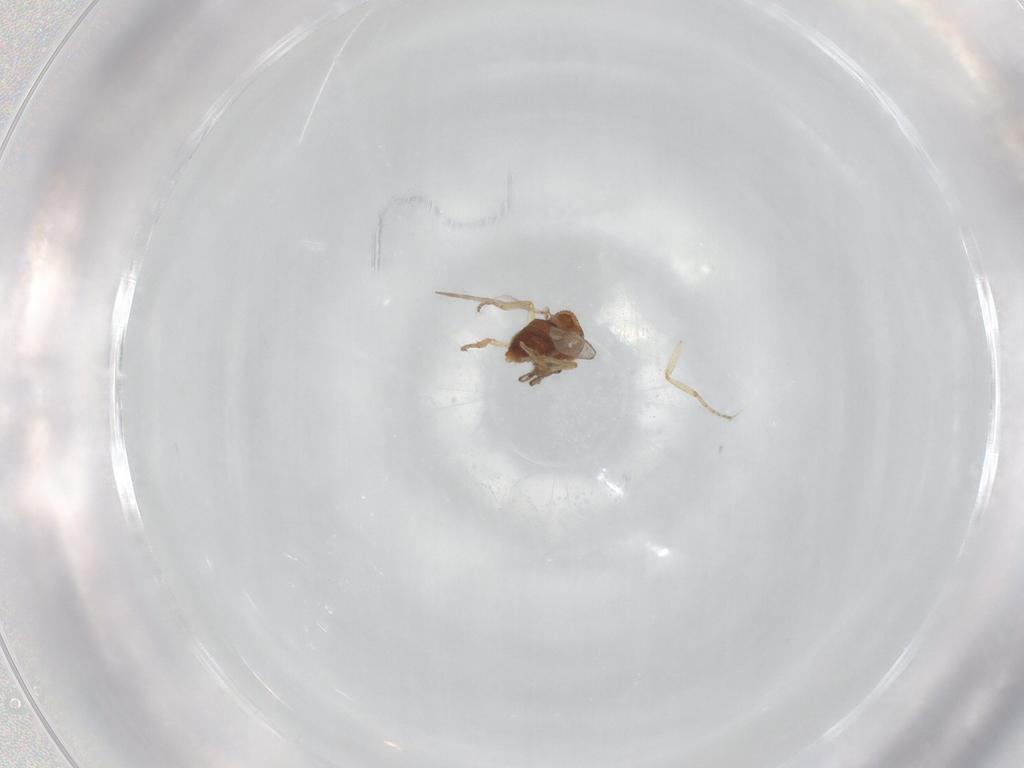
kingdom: Animalia
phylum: Arthropoda
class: Insecta
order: Diptera
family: Ceratopogonidae
